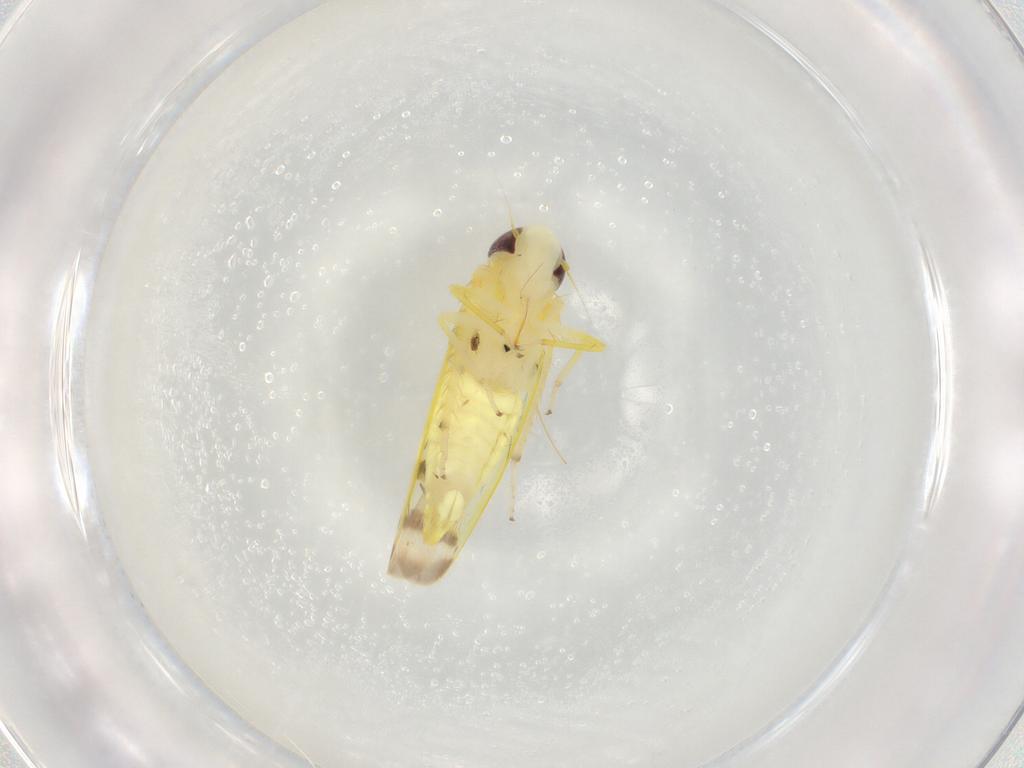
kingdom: Animalia
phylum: Arthropoda
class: Insecta
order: Hemiptera
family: Cicadellidae
